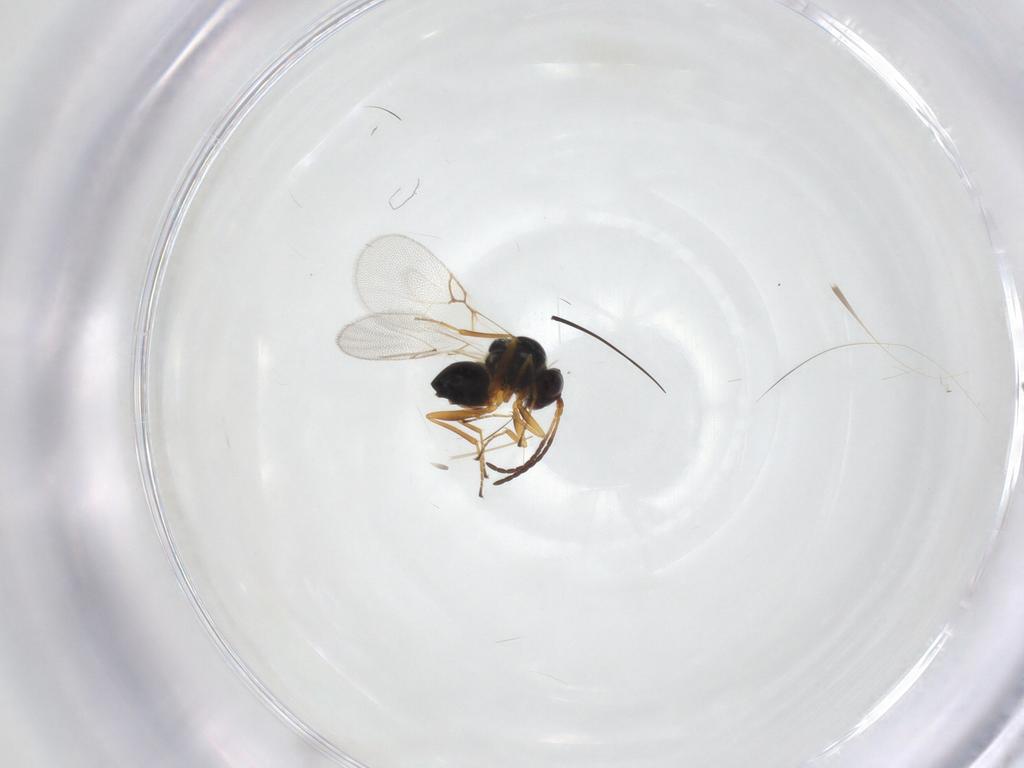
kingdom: Animalia
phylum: Arthropoda
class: Insecta
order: Hymenoptera
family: Figitidae
